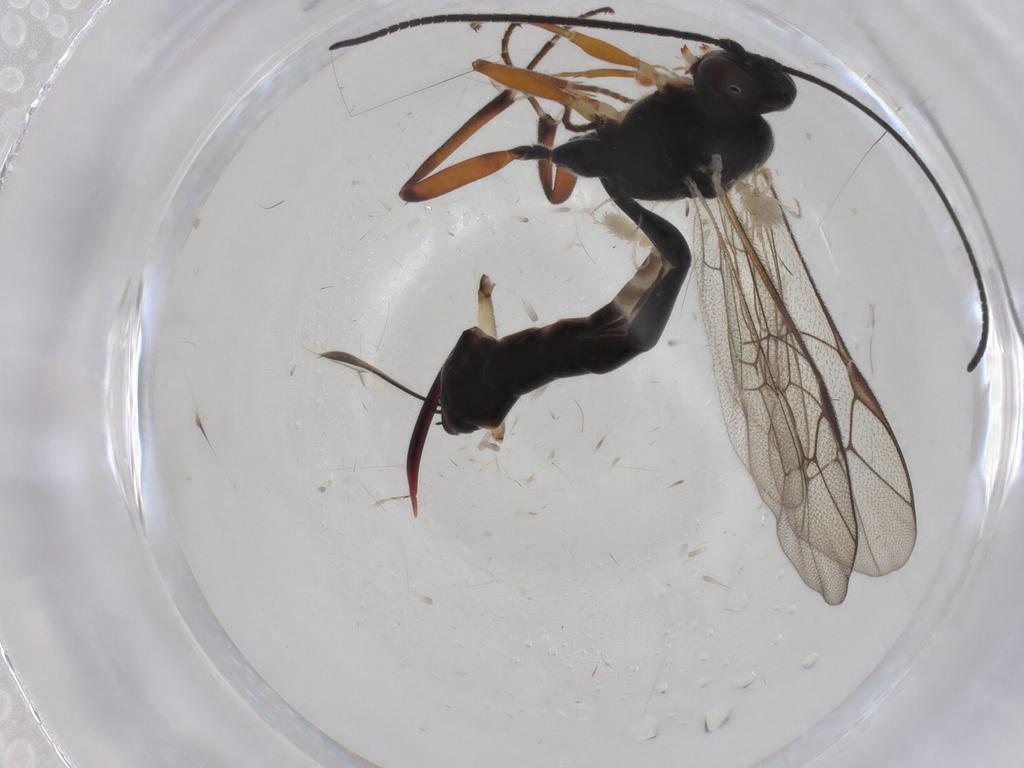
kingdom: Animalia
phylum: Arthropoda
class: Insecta
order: Hymenoptera
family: Ichneumonidae
